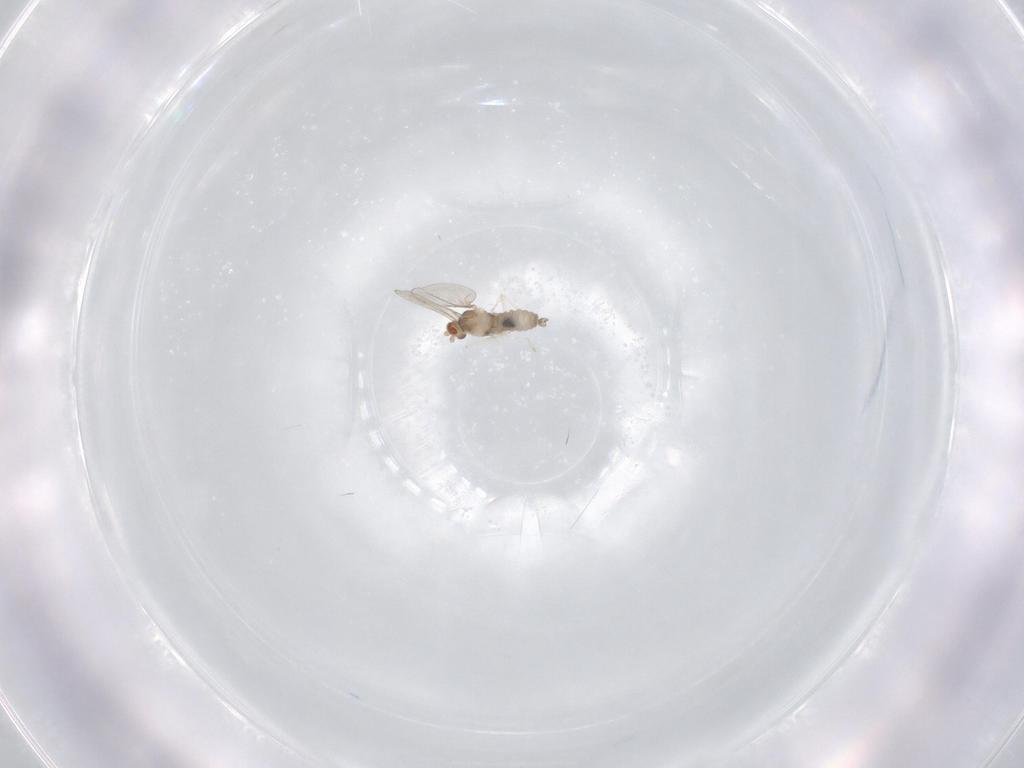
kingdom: Animalia
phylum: Arthropoda
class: Insecta
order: Diptera
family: Cecidomyiidae
